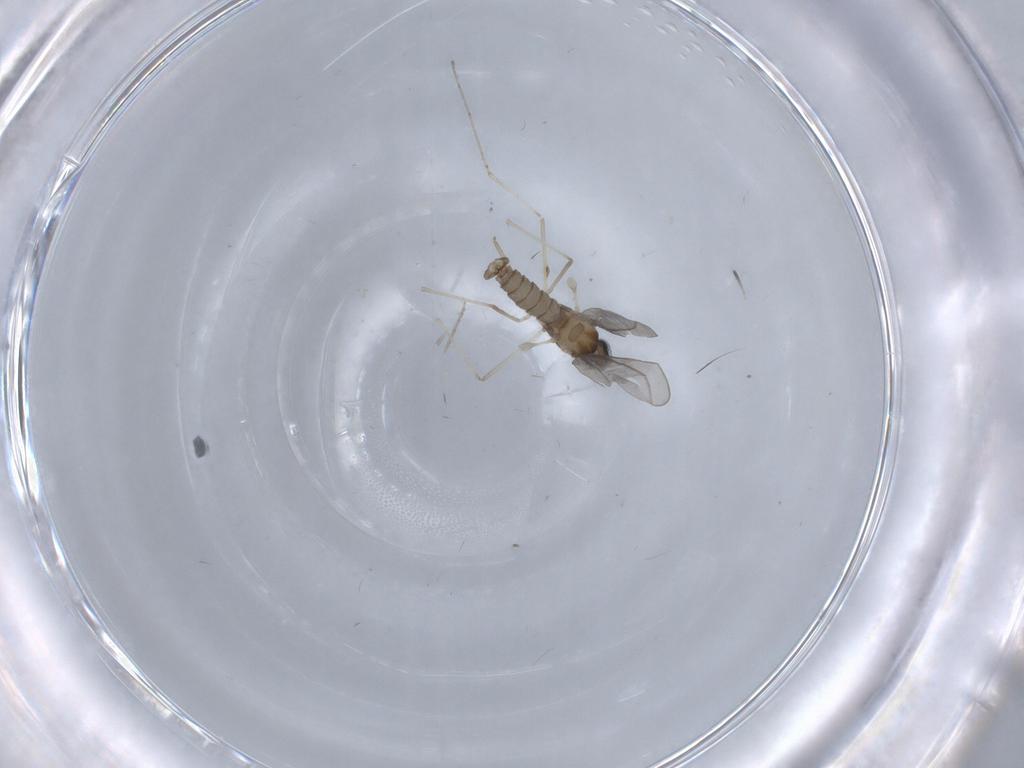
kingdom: Animalia
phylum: Arthropoda
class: Insecta
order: Diptera
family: Cecidomyiidae
